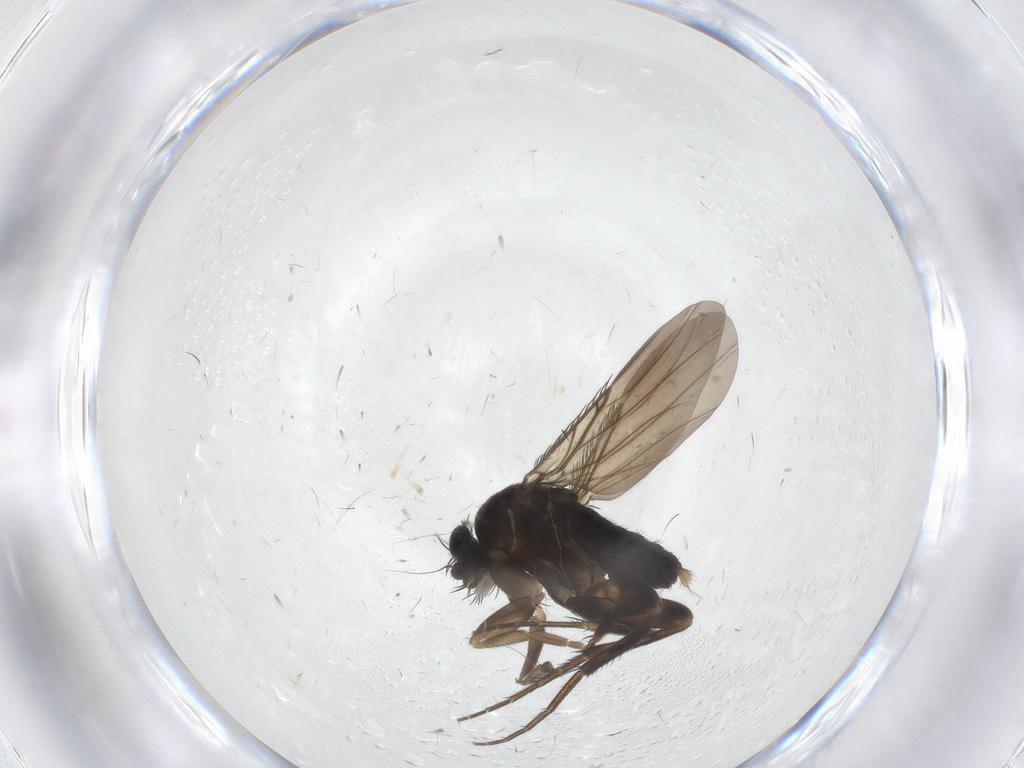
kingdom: Animalia
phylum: Arthropoda
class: Insecta
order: Diptera
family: Phoridae
